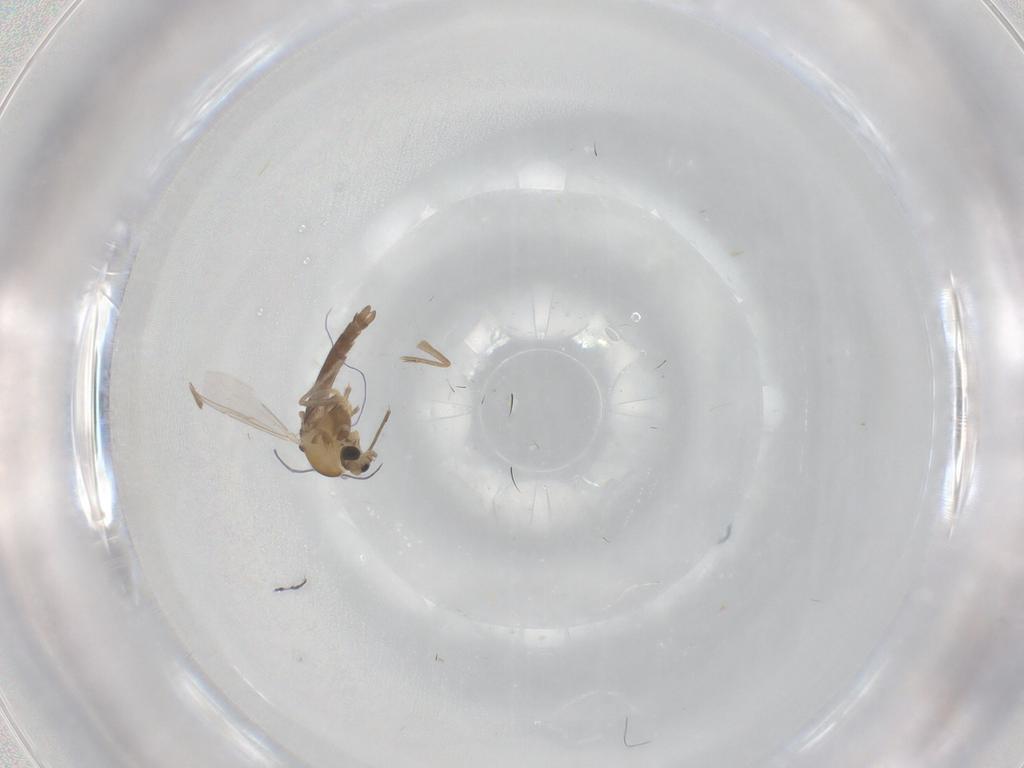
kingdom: Animalia
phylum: Arthropoda
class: Insecta
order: Diptera
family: Chironomidae
